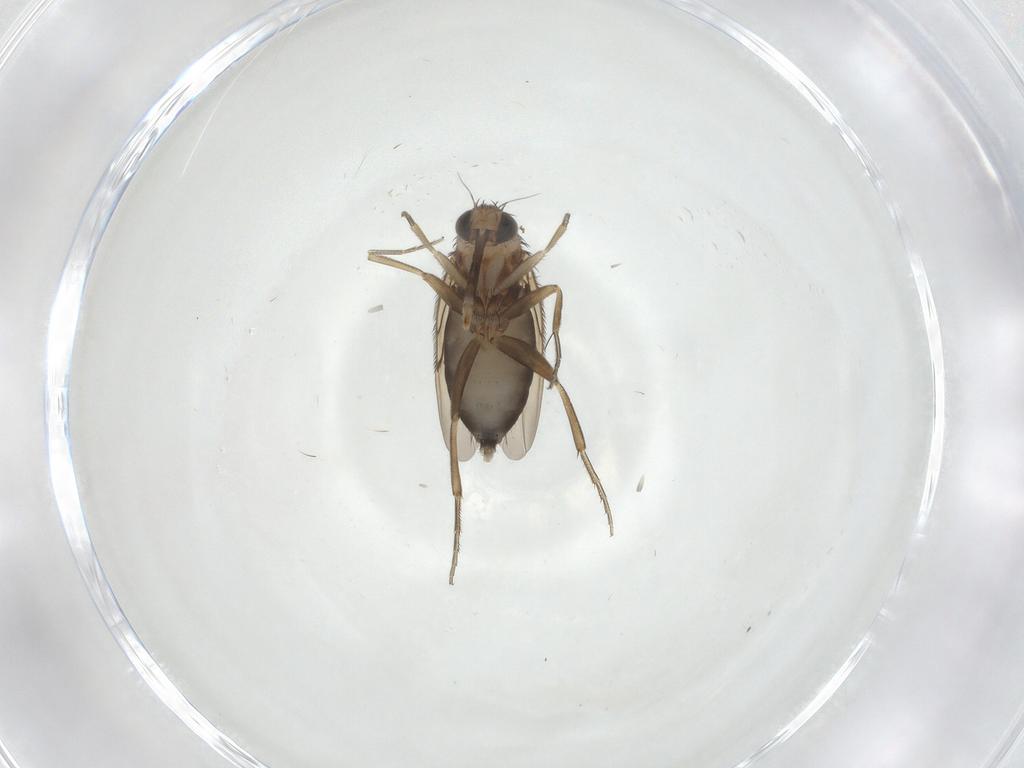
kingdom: Animalia
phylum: Arthropoda
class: Insecta
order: Diptera
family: Phoridae
